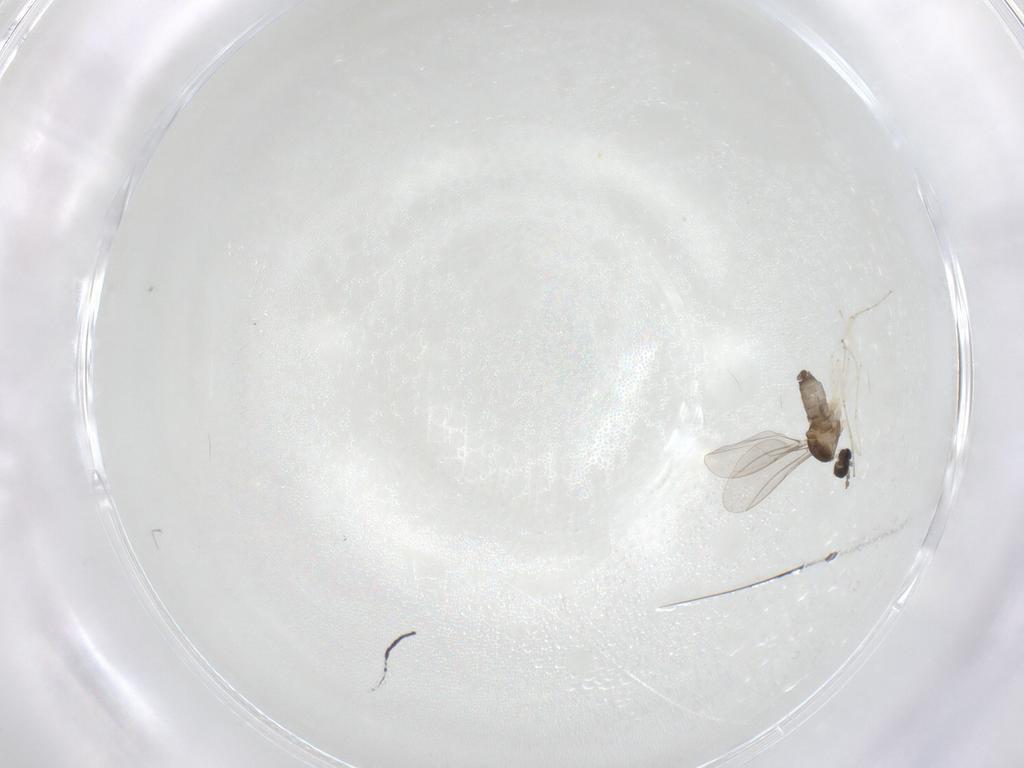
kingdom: Animalia
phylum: Arthropoda
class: Insecta
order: Diptera
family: Cecidomyiidae
